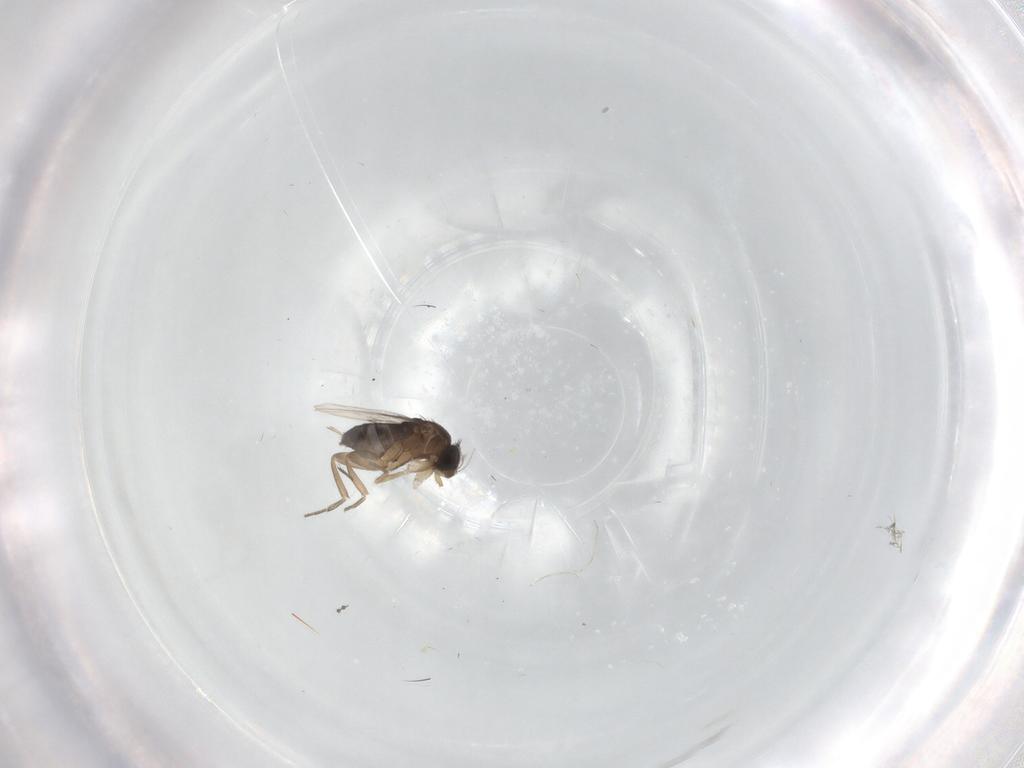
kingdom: Animalia
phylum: Arthropoda
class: Insecta
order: Diptera
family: Phoridae
